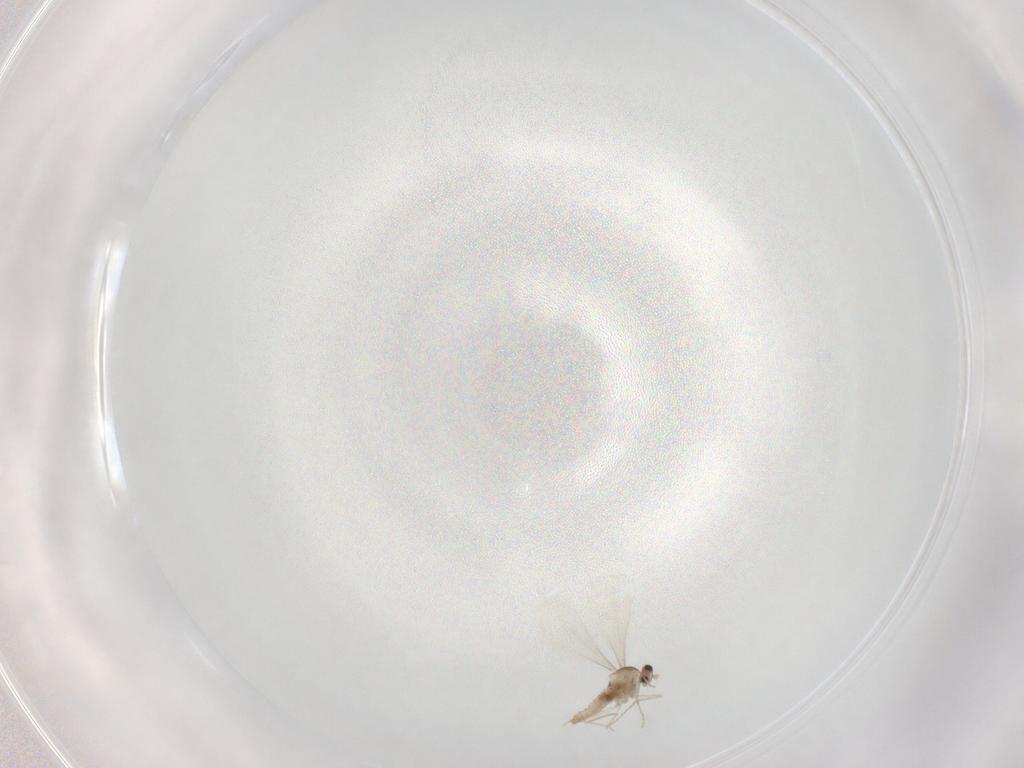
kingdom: Animalia
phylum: Arthropoda
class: Insecta
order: Diptera
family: Cecidomyiidae
